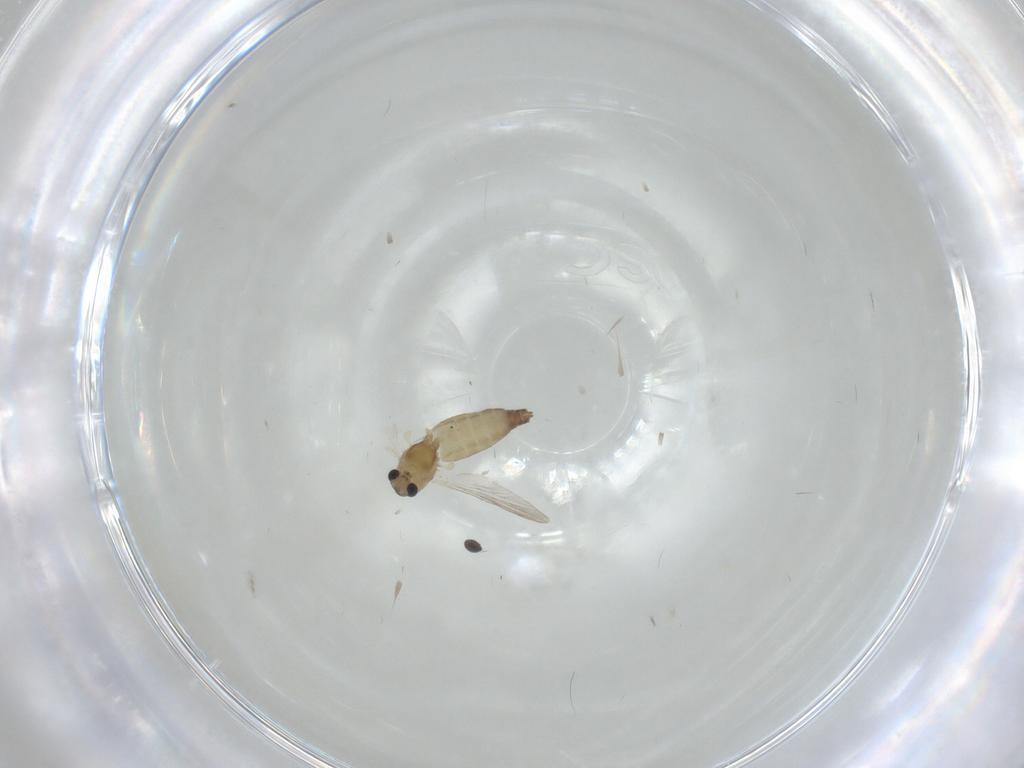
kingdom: Animalia
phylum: Arthropoda
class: Insecta
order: Diptera
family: Sphaeroceridae
